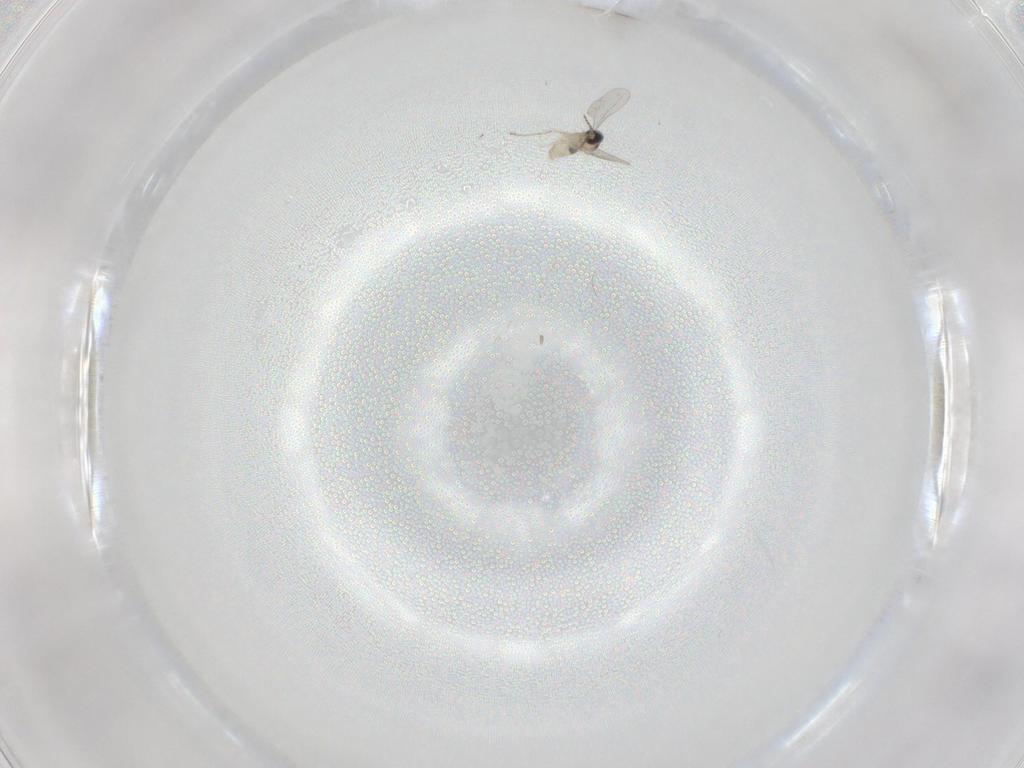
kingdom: Animalia
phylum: Arthropoda
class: Insecta
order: Diptera
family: Cecidomyiidae
